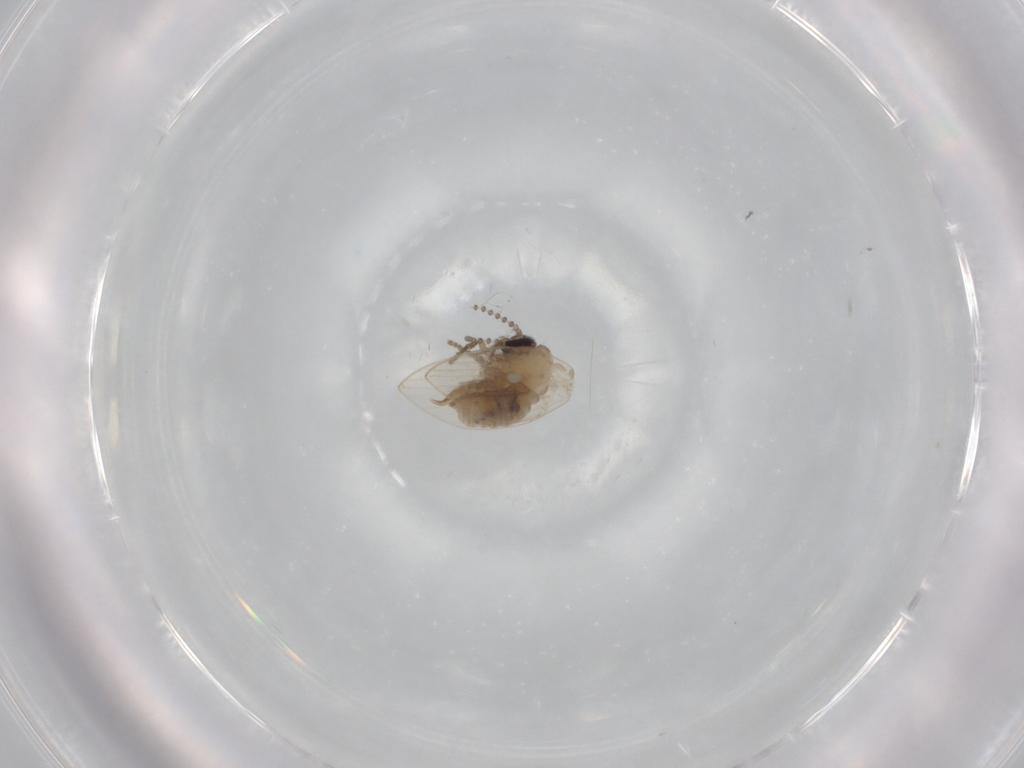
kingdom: Animalia
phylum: Arthropoda
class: Insecta
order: Diptera
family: Psychodidae
